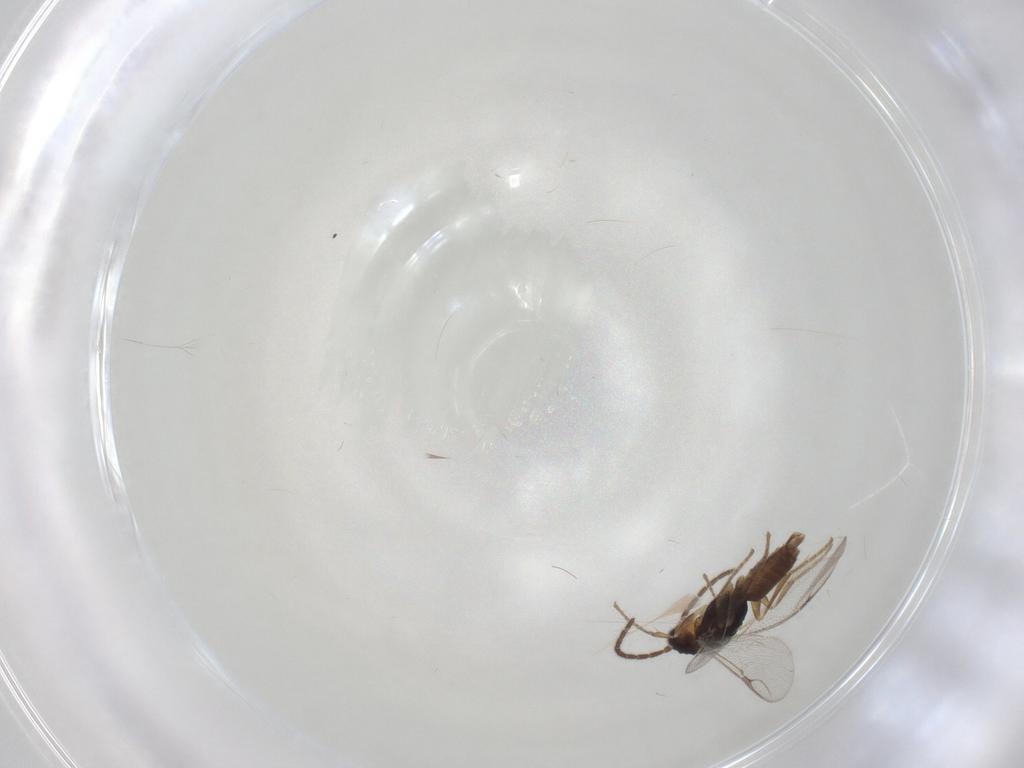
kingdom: Animalia
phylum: Arthropoda
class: Insecta
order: Hymenoptera
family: Dryinidae
